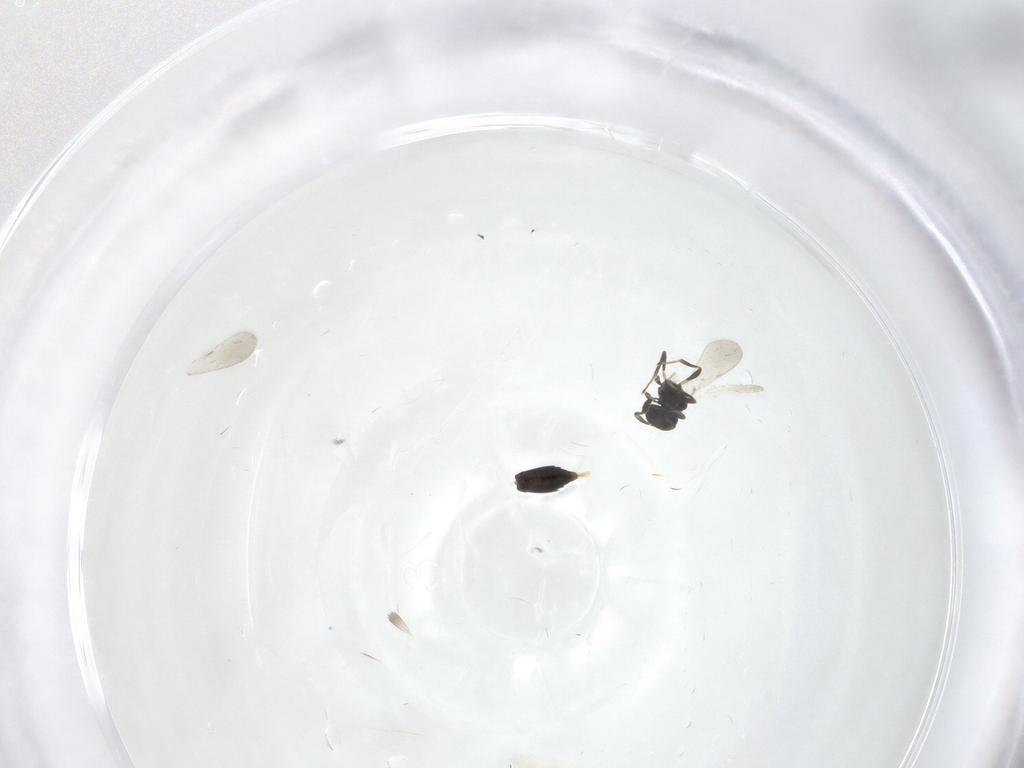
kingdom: Animalia
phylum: Arthropoda
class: Insecta
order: Hymenoptera
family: Platygastridae
